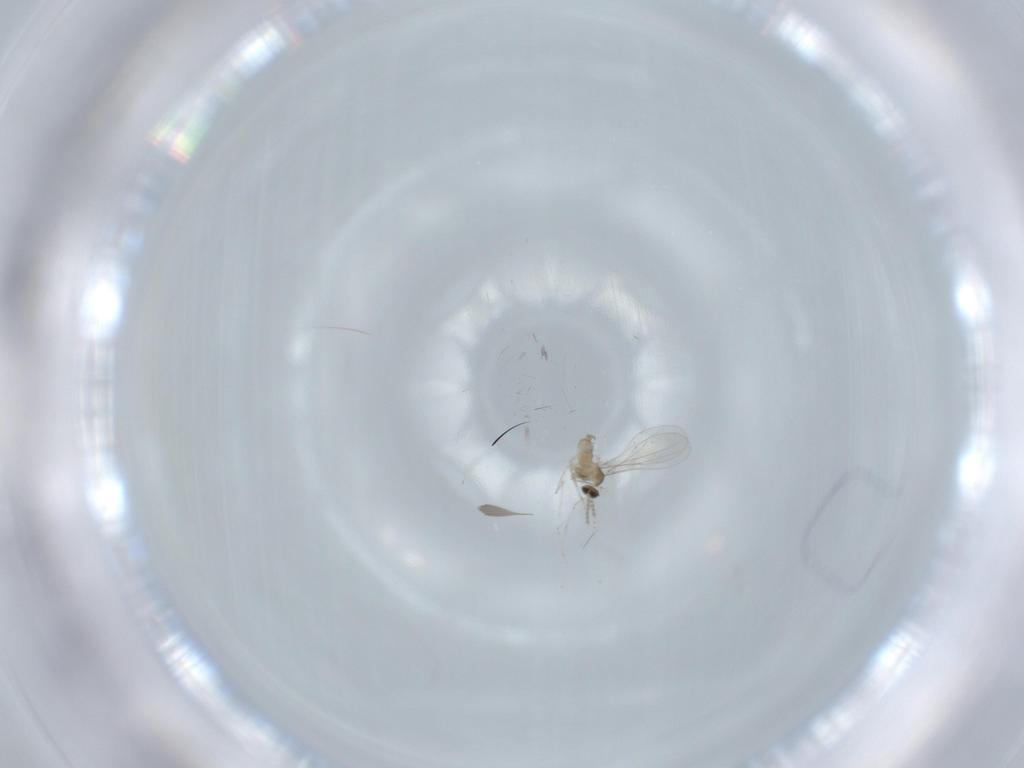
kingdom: Animalia
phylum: Arthropoda
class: Insecta
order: Diptera
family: Cecidomyiidae
